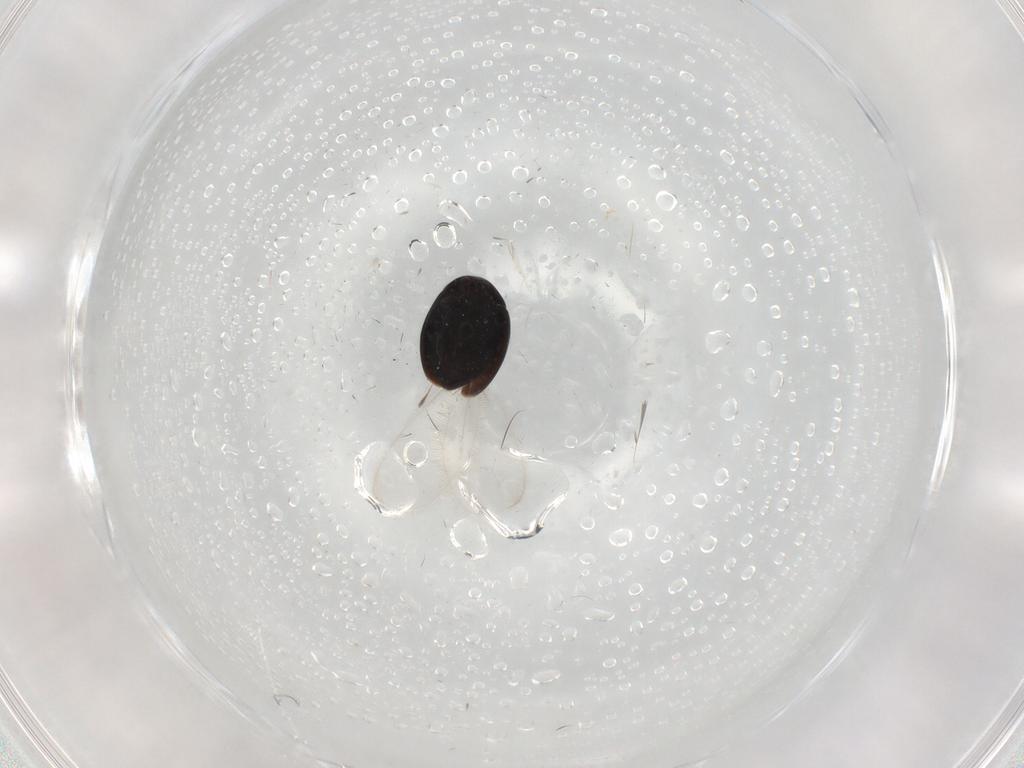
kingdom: Animalia
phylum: Arthropoda
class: Insecta
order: Coleoptera
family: Corylophidae
